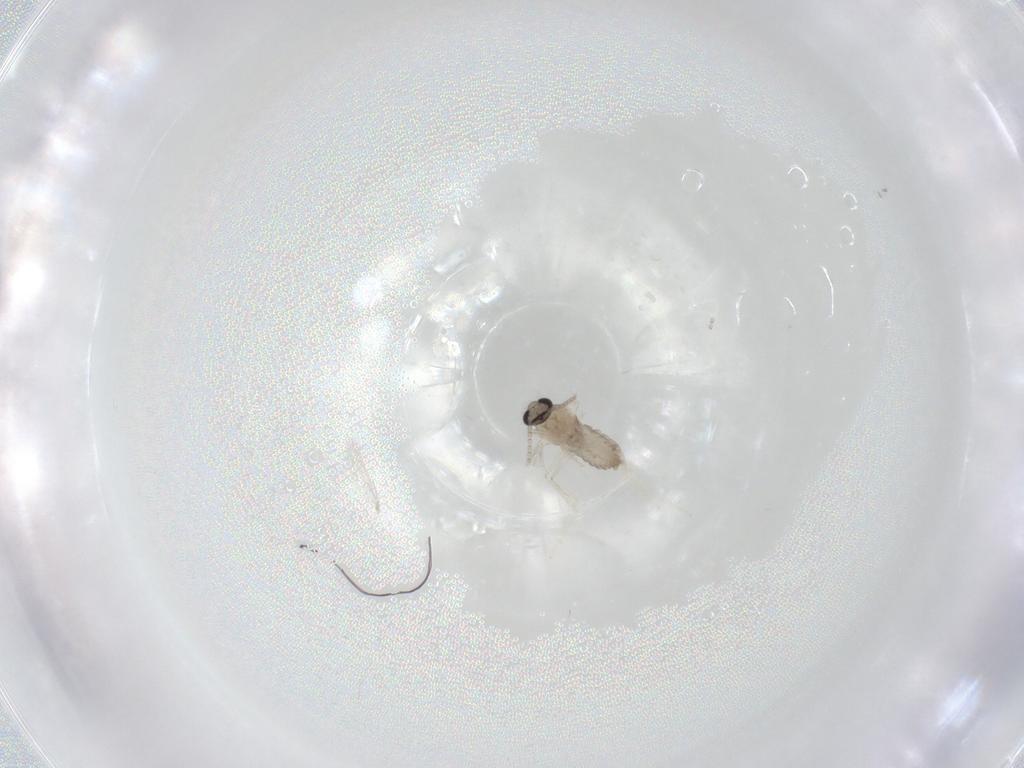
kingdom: Animalia
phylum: Arthropoda
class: Insecta
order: Diptera
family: Cecidomyiidae
